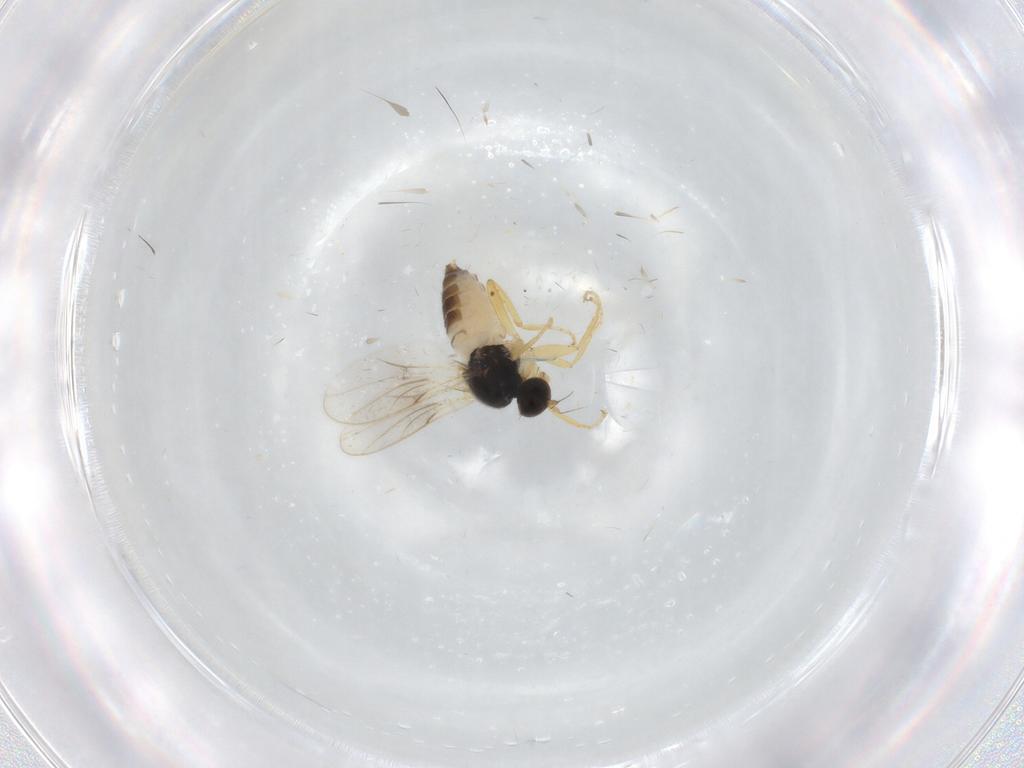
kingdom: Animalia
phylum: Arthropoda
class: Insecta
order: Diptera
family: Hybotidae
